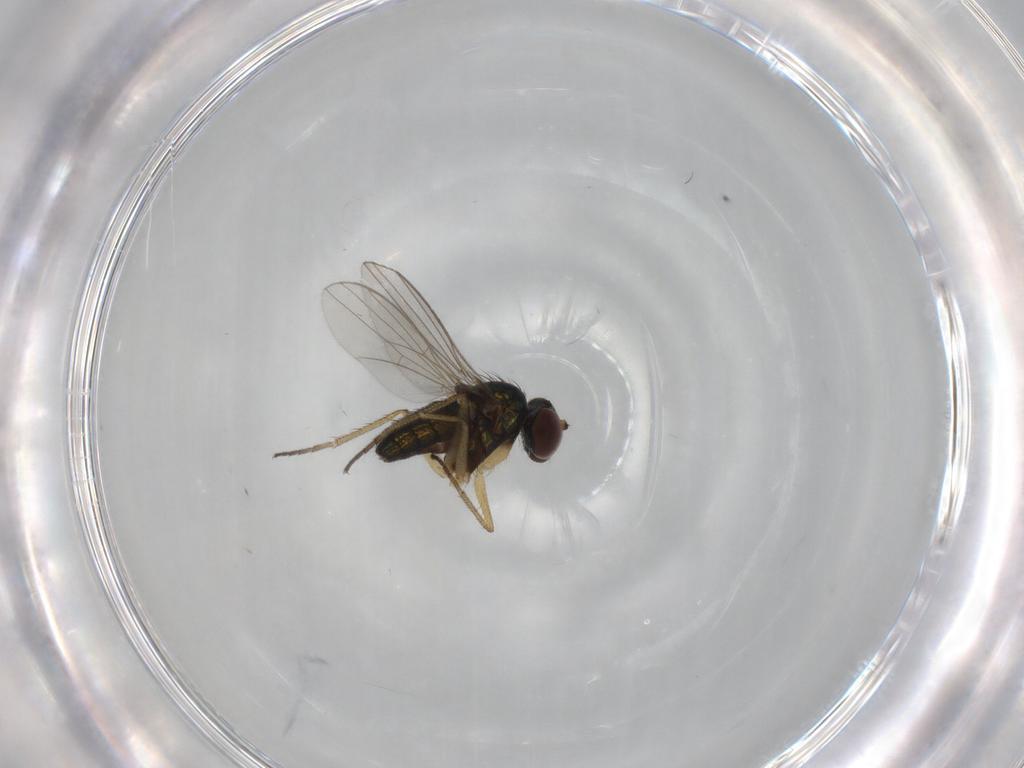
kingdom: Animalia
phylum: Arthropoda
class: Insecta
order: Diptera
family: Dolichopodidae
